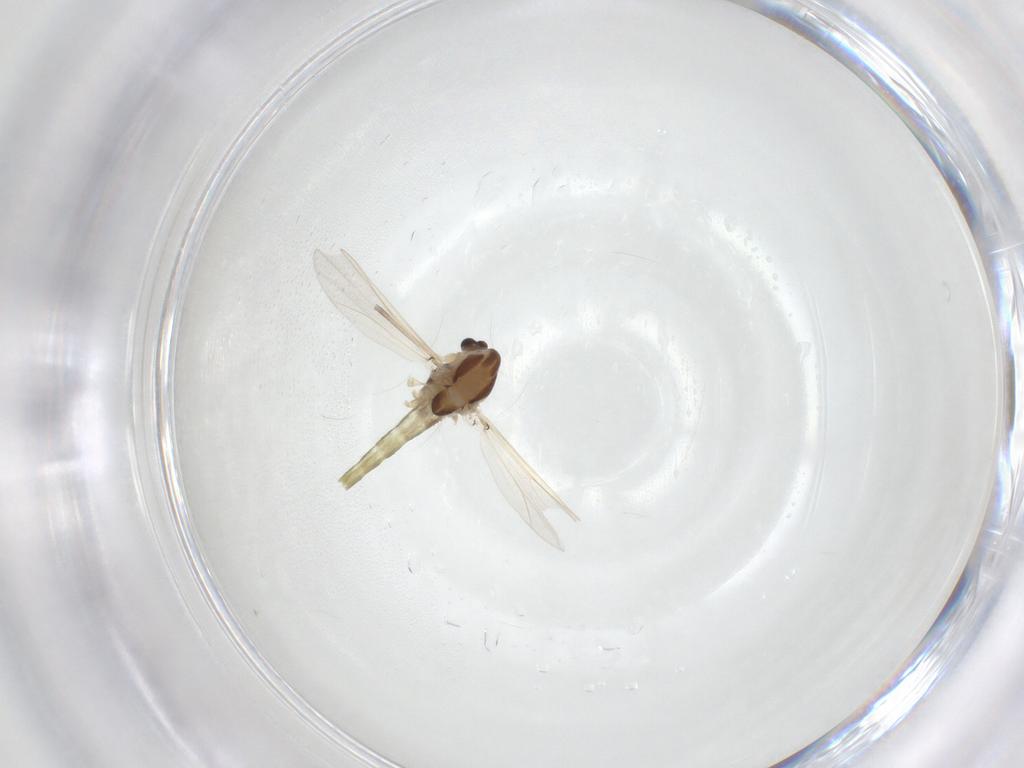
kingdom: Animalia
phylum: Arthropoda
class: Insecta
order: Diptera
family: Chironomidae
